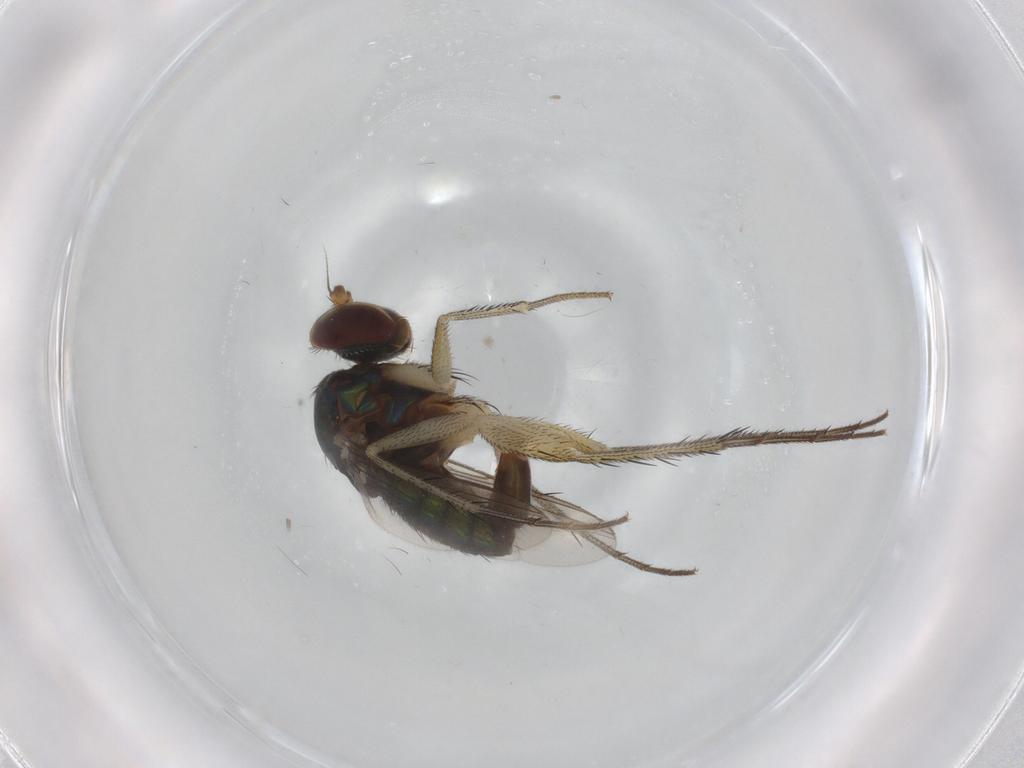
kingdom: Animalia
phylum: Arthropoda
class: Insecta
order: Diptera
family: Dolichopodidae
